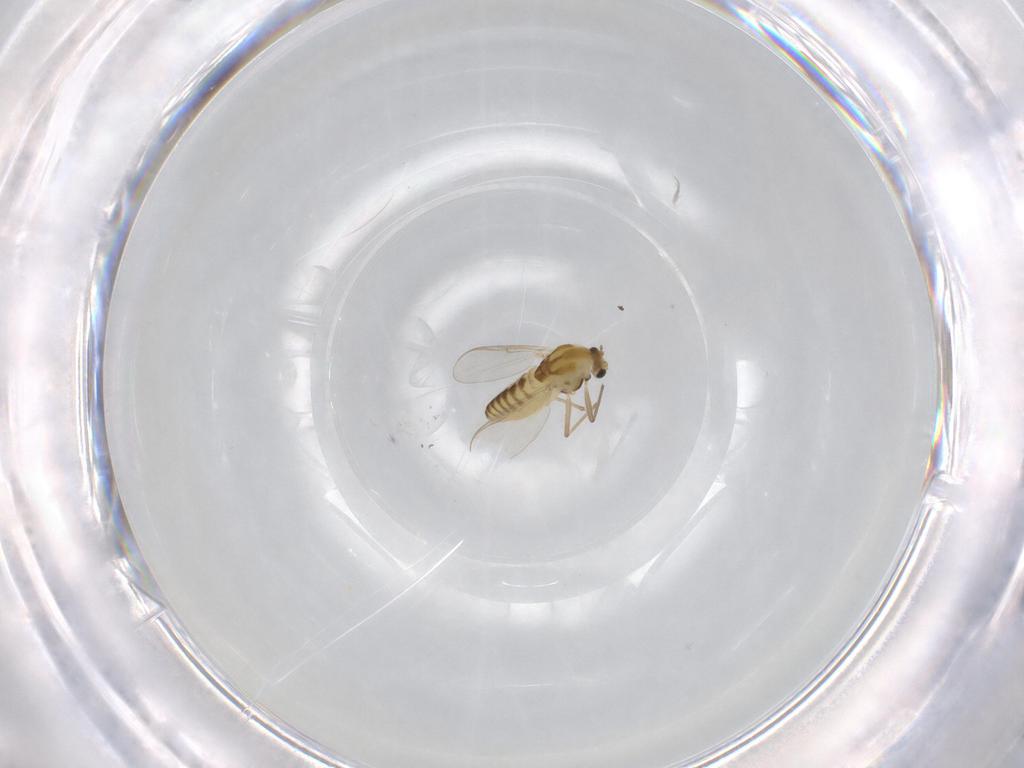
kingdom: Animalia
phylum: Arthropoda
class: Insecta
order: Diptera
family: Chironomidae
